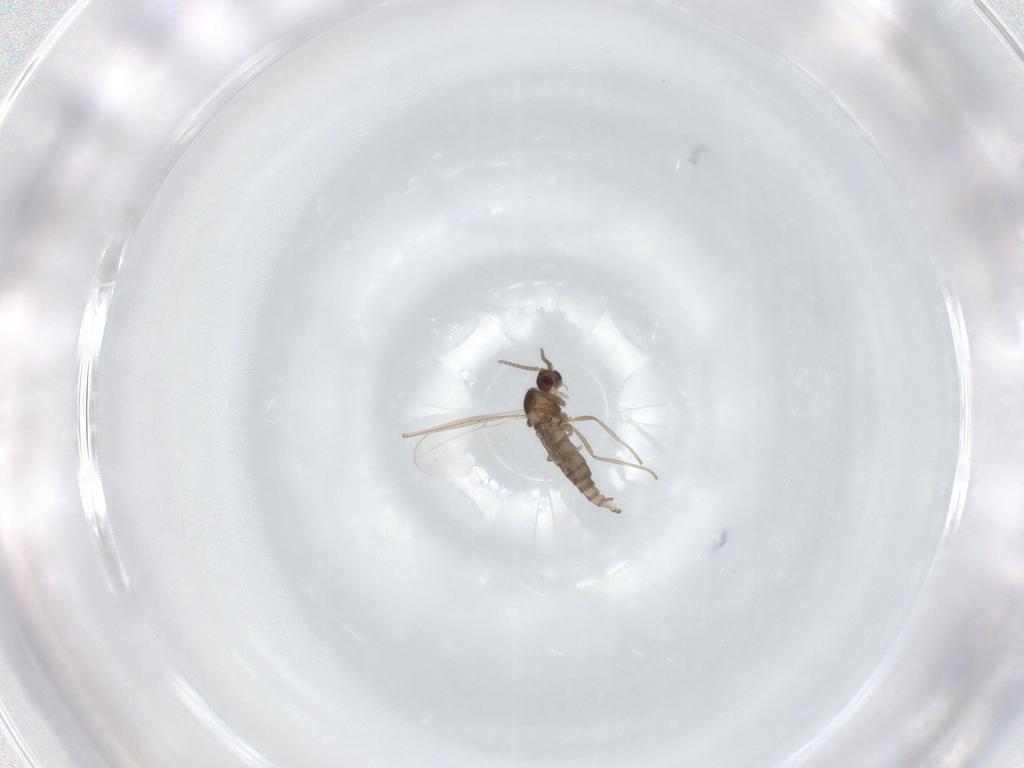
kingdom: Animalia
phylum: Arthropoda
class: Insecta
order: Diptera
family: Cecidomyiidae
